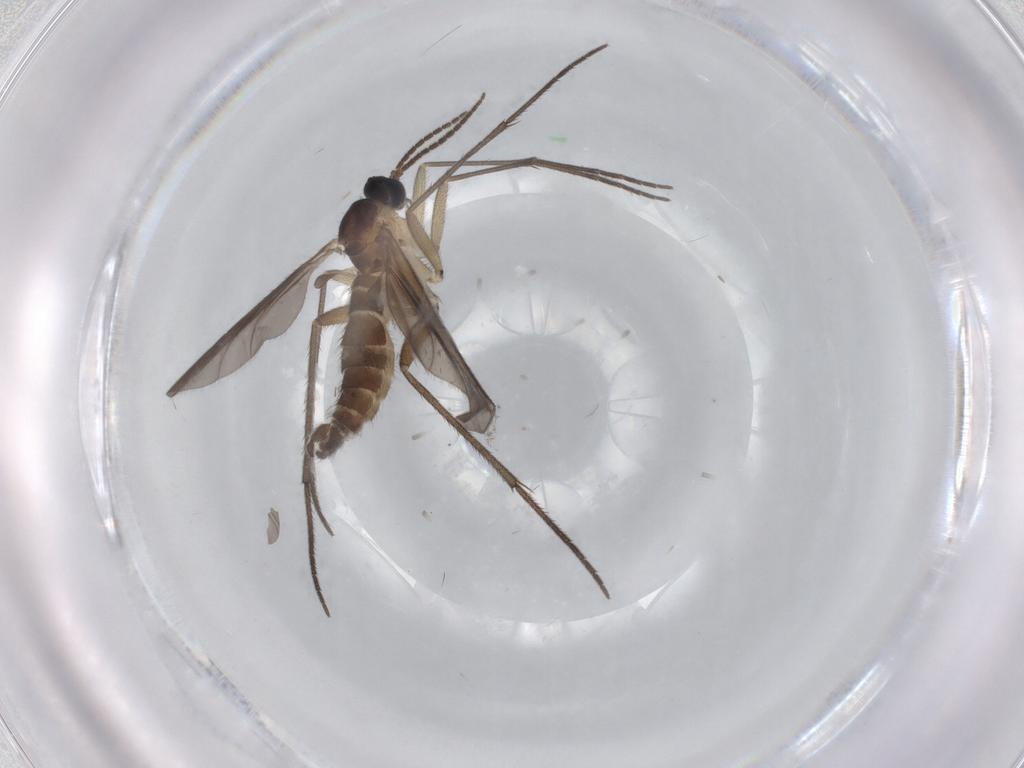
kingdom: Animalia
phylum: Arthropoda
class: Insecta
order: Diptera
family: Sciaridae
